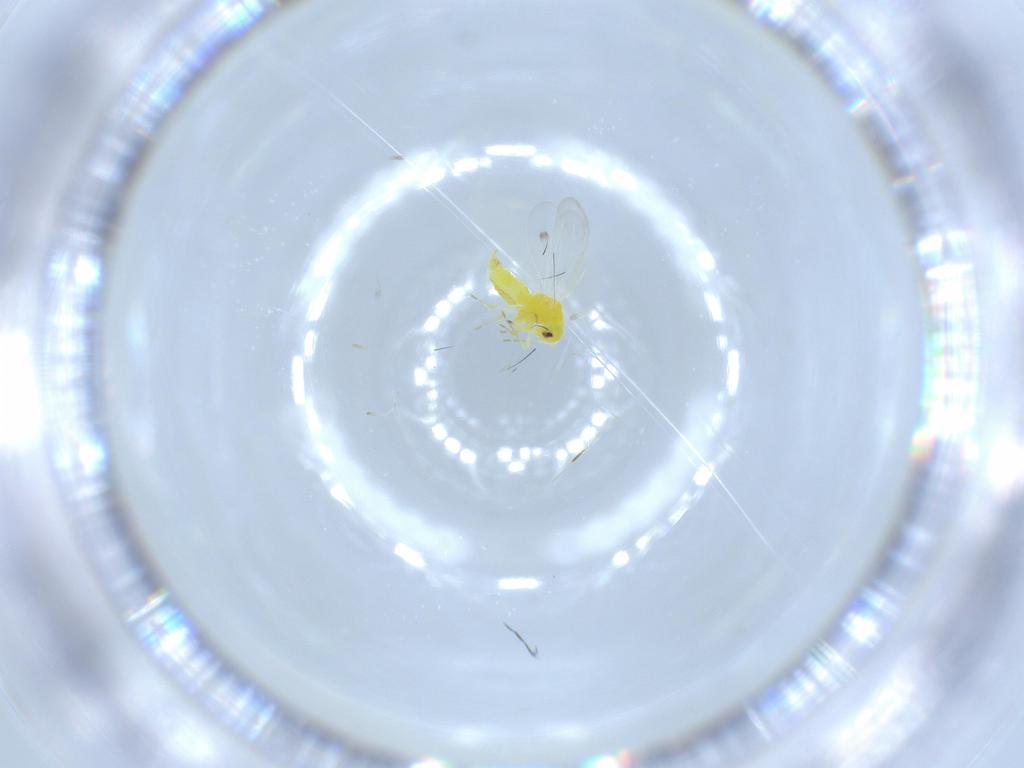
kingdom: Animalia
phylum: Arthropoda
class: Insecta
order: Hemiptera
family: Aleyrodidae
